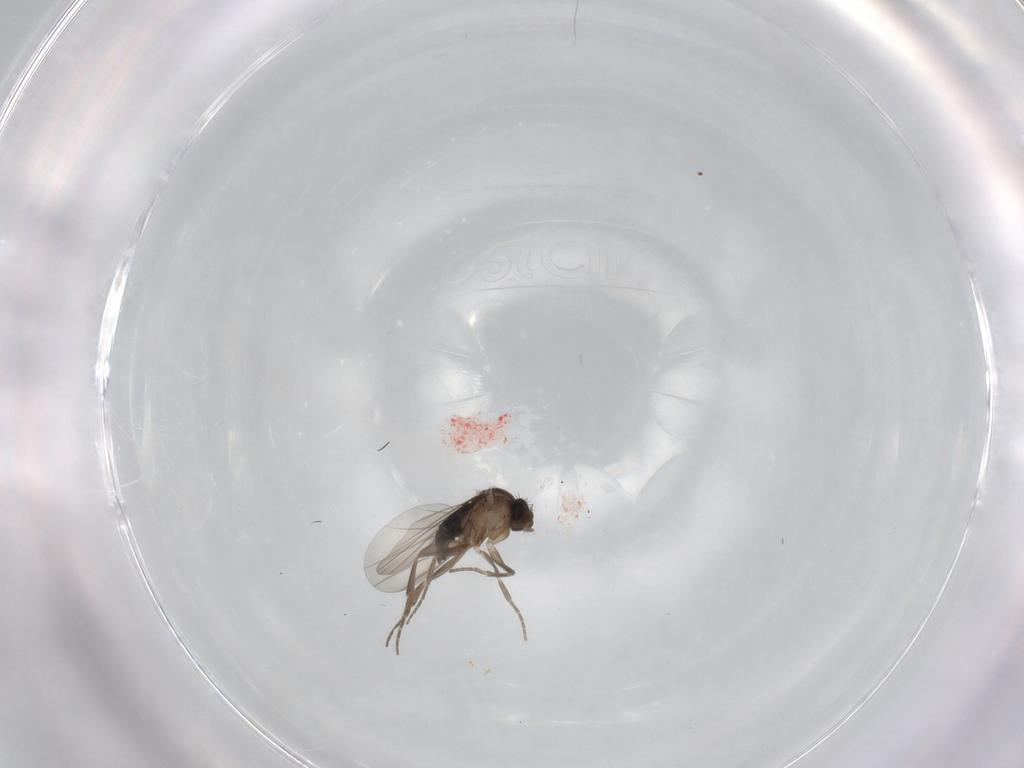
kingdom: Animalia
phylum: Arthropoda
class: Insecta
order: Diptera
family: Phoridae
